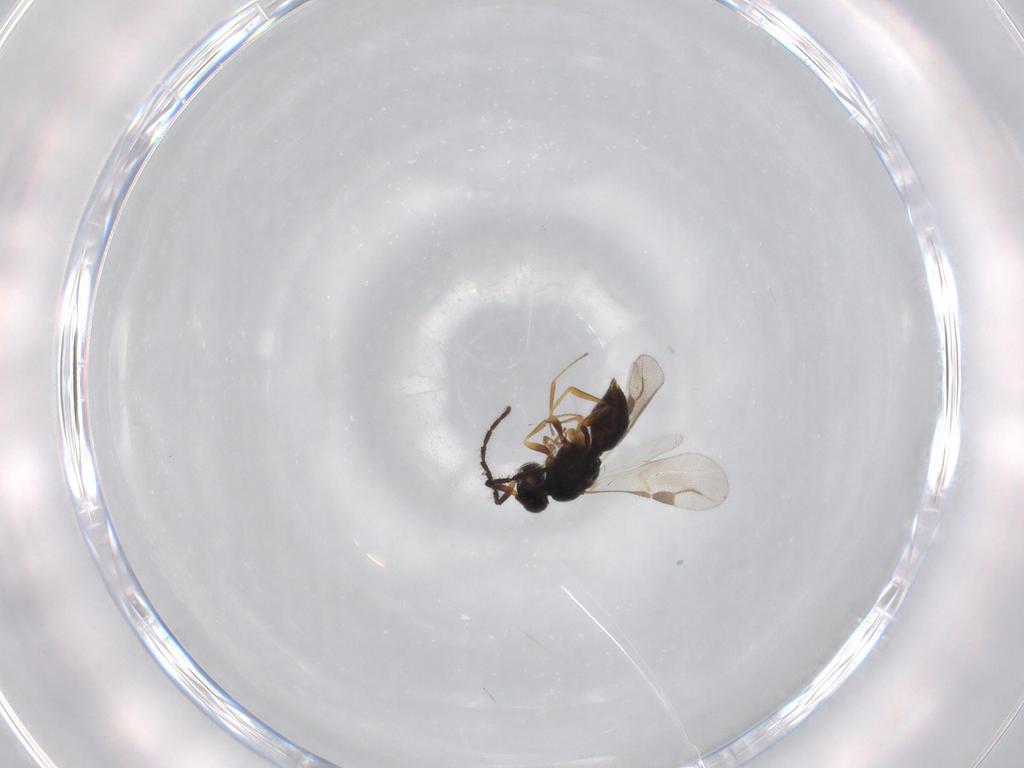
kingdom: Animalia
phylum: Arthropoda
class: Insecta
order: Hymenoptera
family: Megaspilidae
